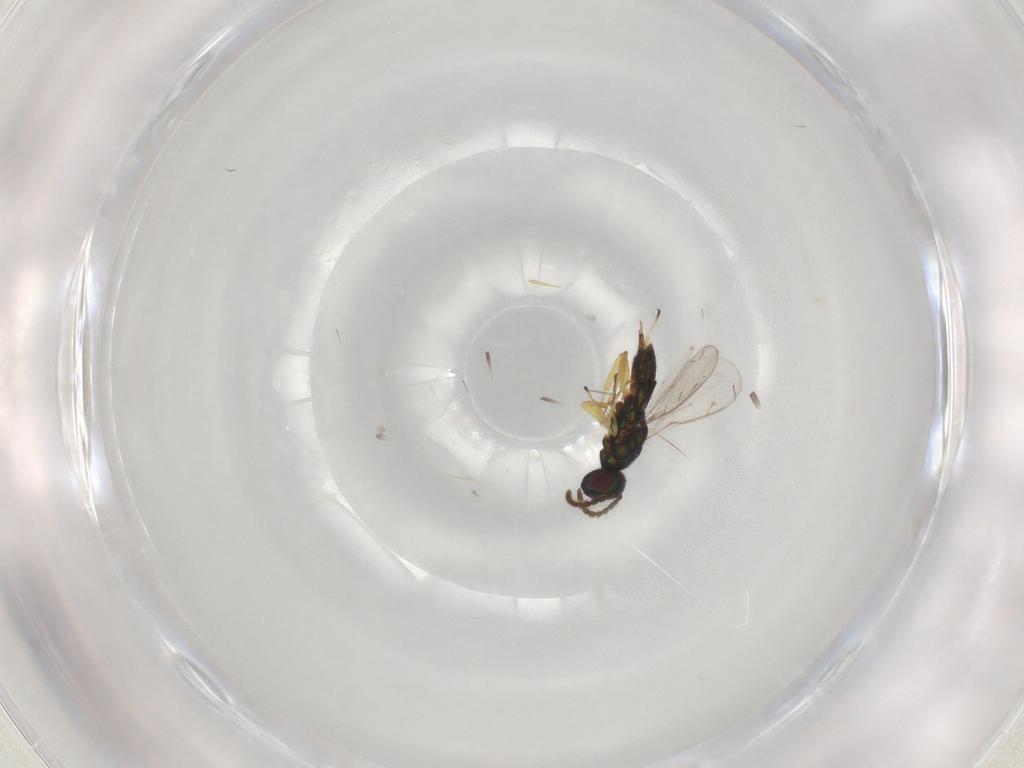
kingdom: Animalia
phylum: Arthropoda
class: Insecta
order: Hymenoptera
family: Eupelmidae
